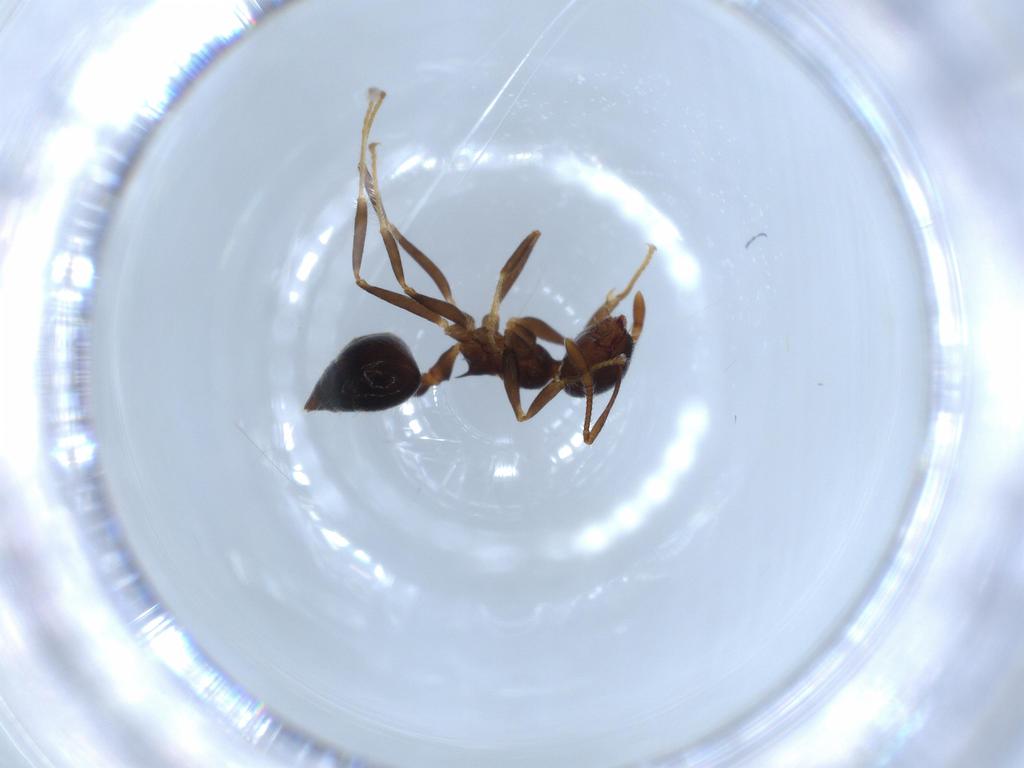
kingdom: Animalia
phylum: Arthropoda
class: Insecta
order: Hymenoptera
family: Formicidae
